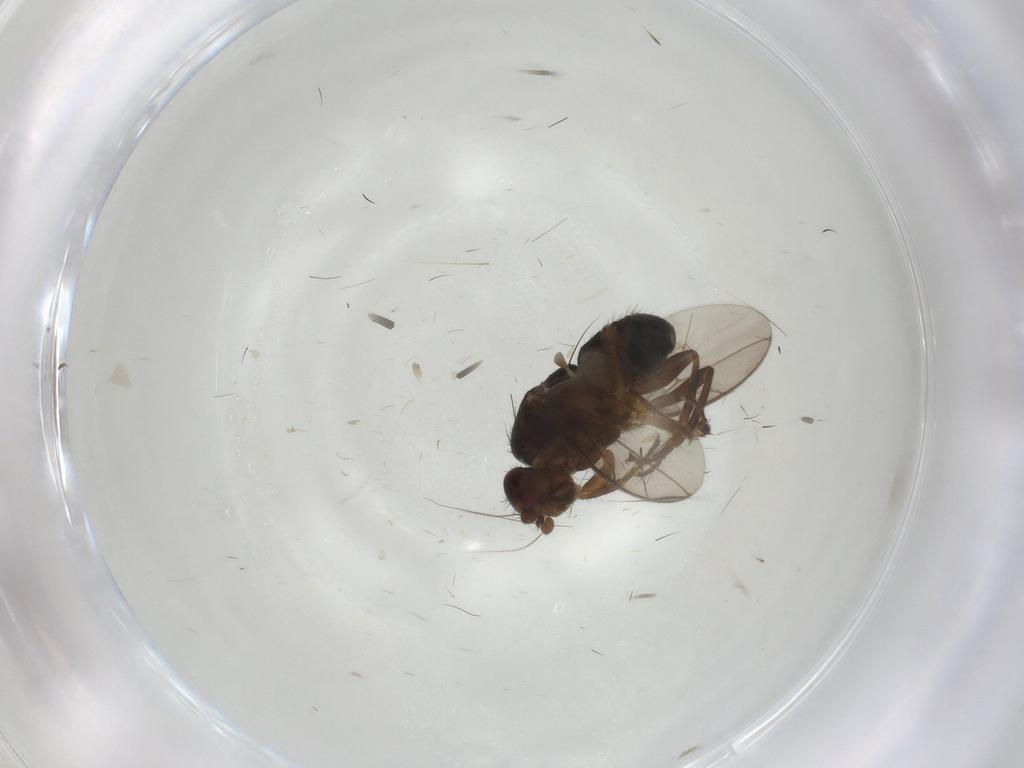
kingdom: Animalia
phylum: Arthropoda
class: Insecta
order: Diptera
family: Sphaeroceridae
